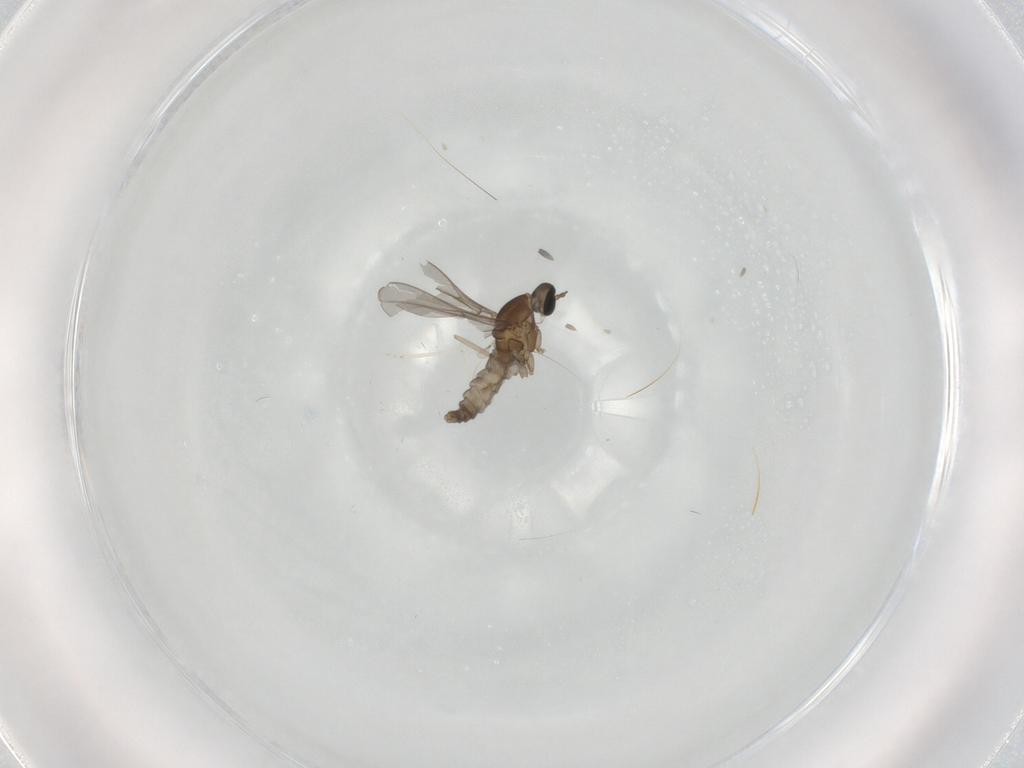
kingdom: Animalia
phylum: Arthropoda
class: Insecta
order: Diptera
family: Cecidomyiidae
